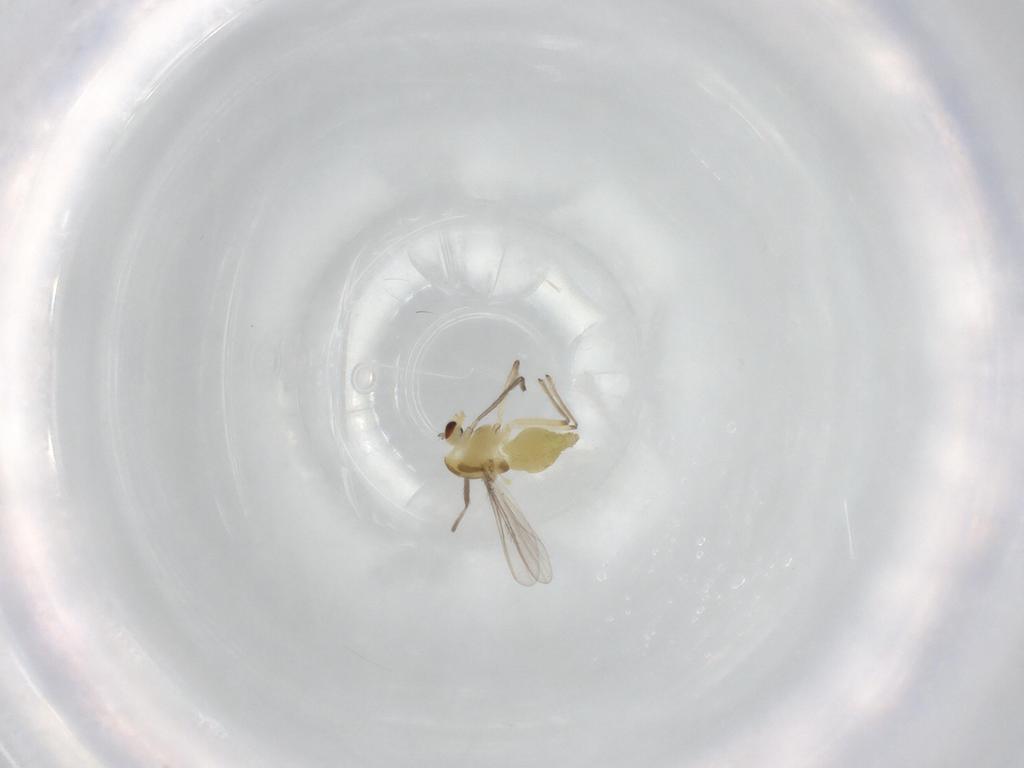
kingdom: Animalia
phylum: Arthropoda
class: Insecta
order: Diptera
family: Chironomidae
